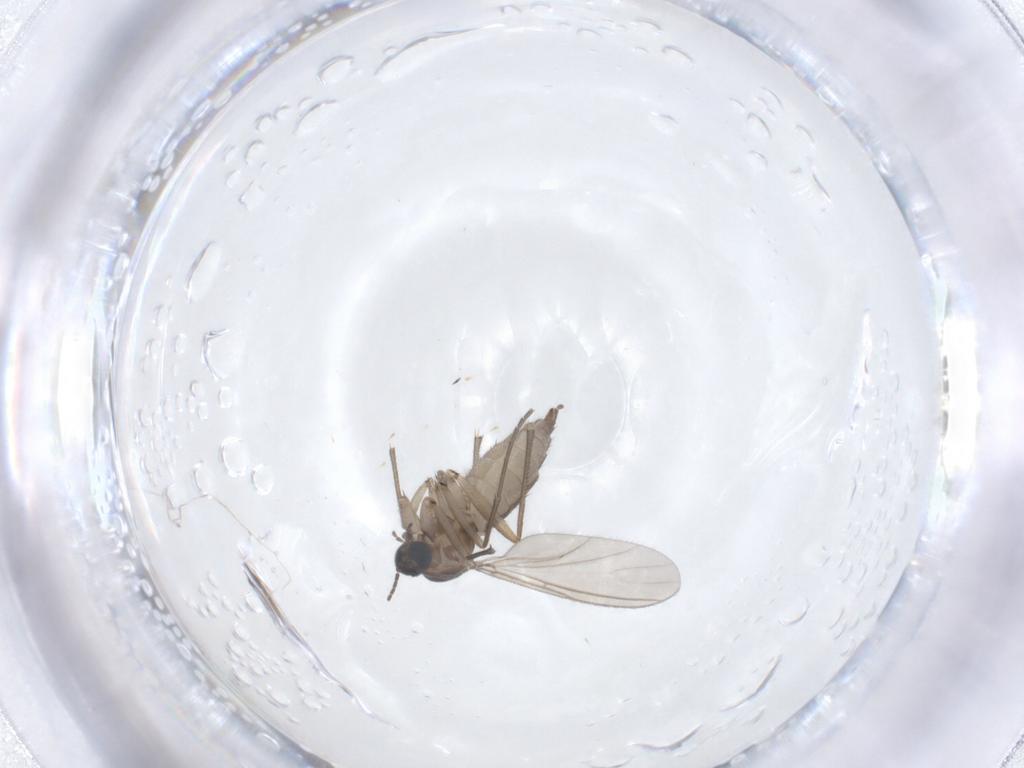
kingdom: Animalia
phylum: Arthropoda
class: Insecta
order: Diptera
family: Sciaridae
